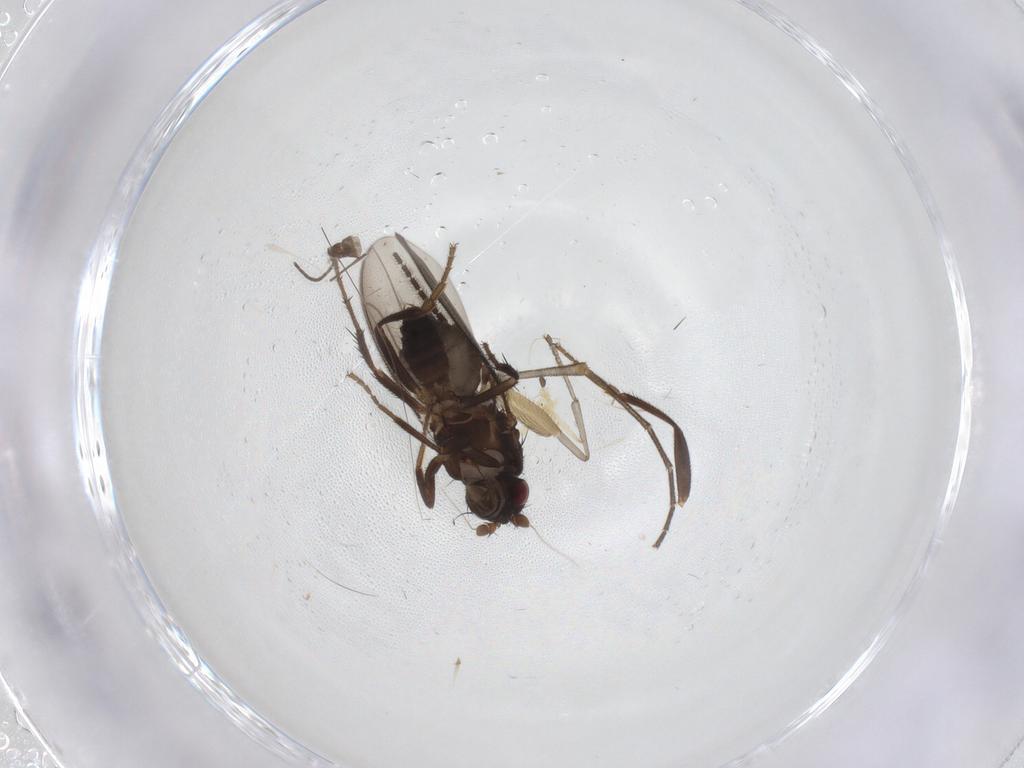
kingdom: Animalia
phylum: Arthropoda
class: Insecta
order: Diptera
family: Sphaeroceridae
